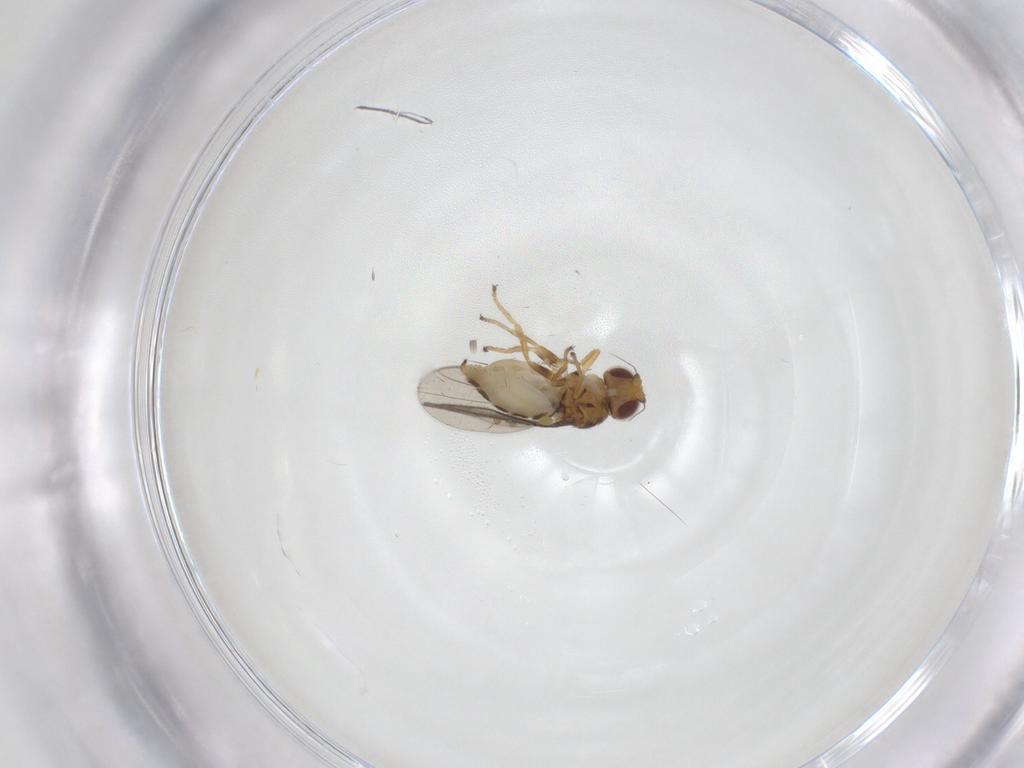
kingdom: Animalia
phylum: Arthropoda
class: Insecta
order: Diptera
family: Chloropidae
